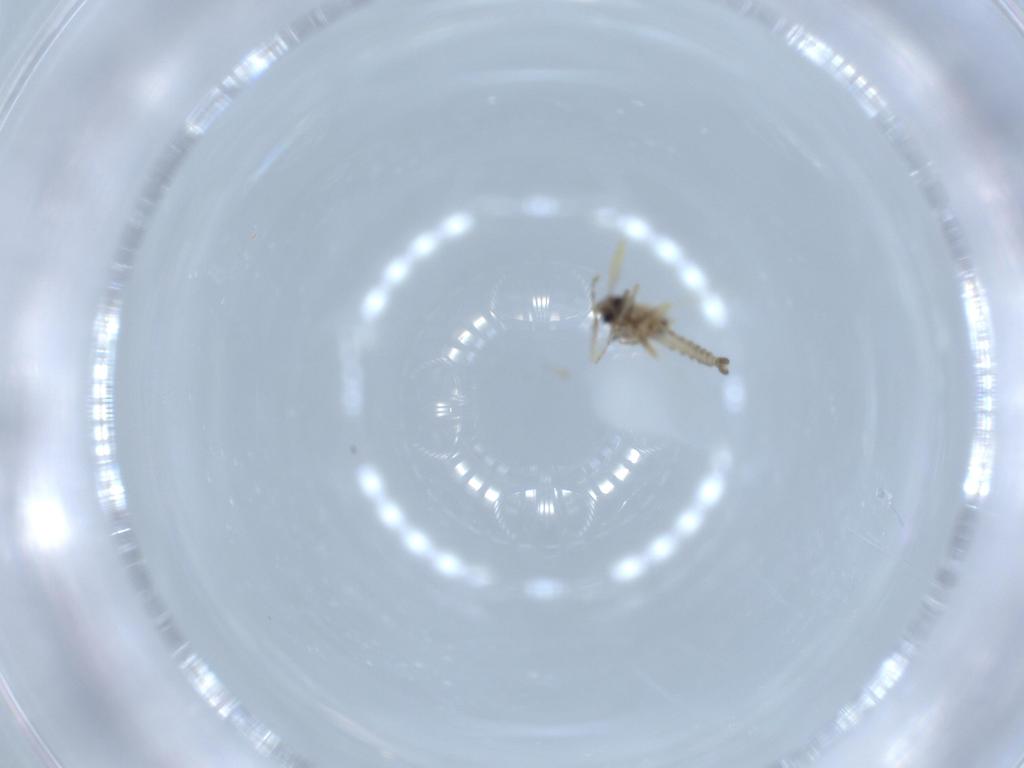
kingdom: Animalia
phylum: Arthropoda
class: Insecta
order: Diptera
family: Ceratopogonidae
